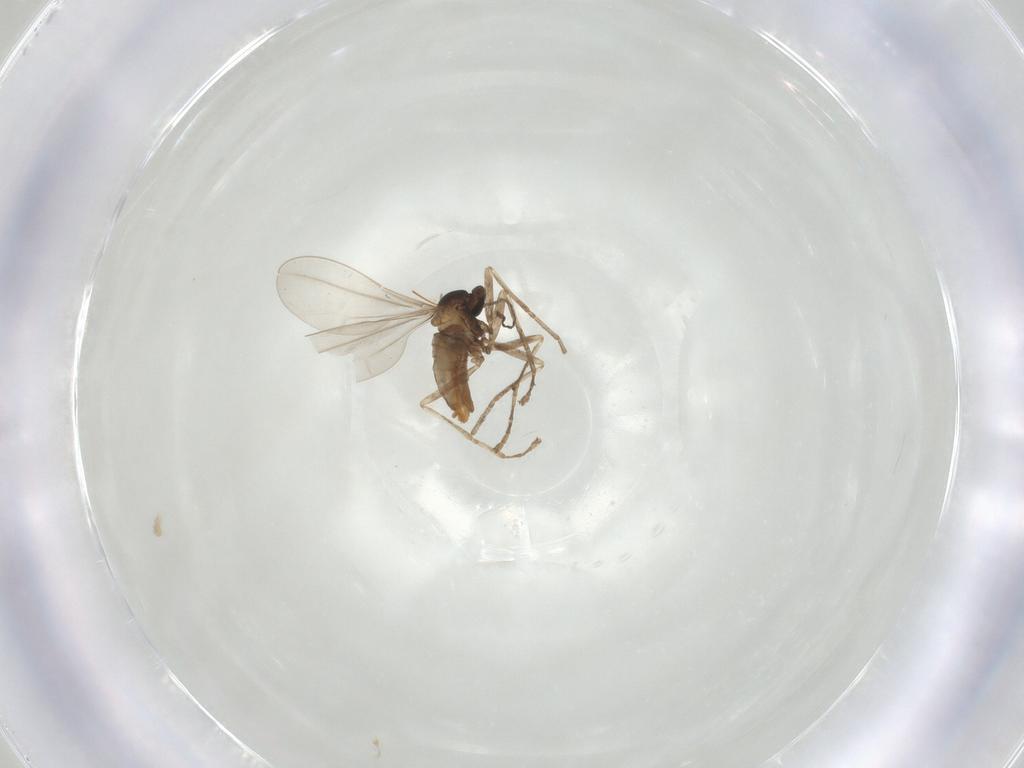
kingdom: Animalia
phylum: Arthropoda
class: Insecta
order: Diptera
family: Cecidomyiidae
